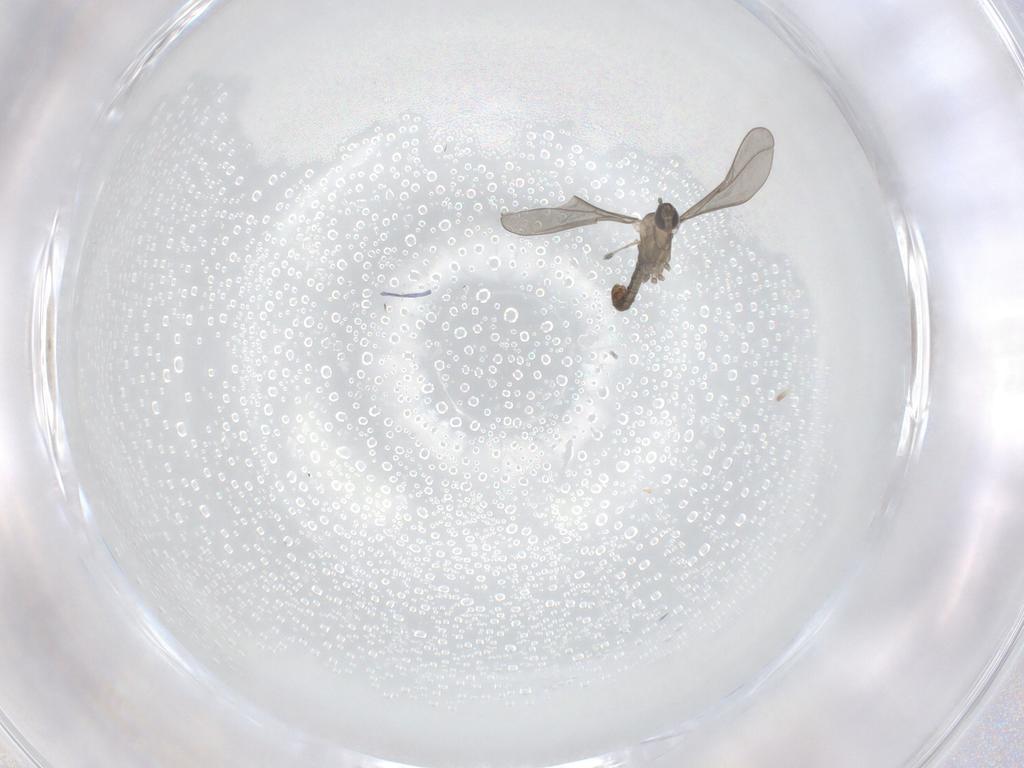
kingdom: Animalia
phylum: Arthropoda
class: Insecta
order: Diptera
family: Cecidomyiidae
